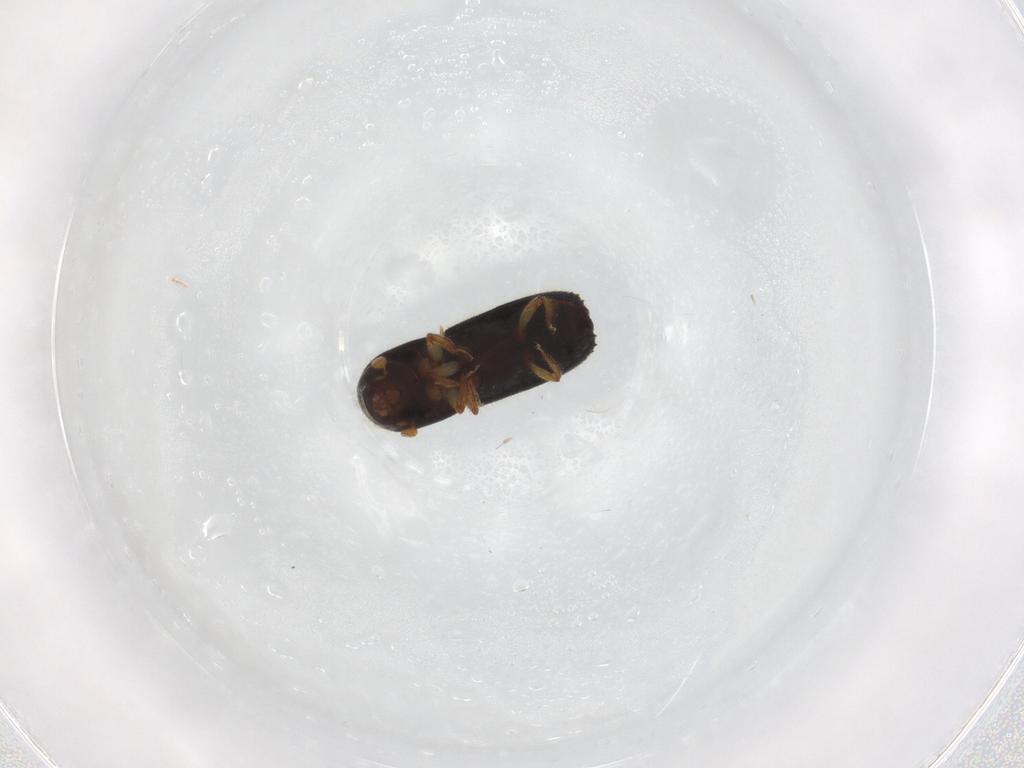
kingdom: Animalia
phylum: Arthropoda
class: Insecta
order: Coleoptera
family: Curculionidae
